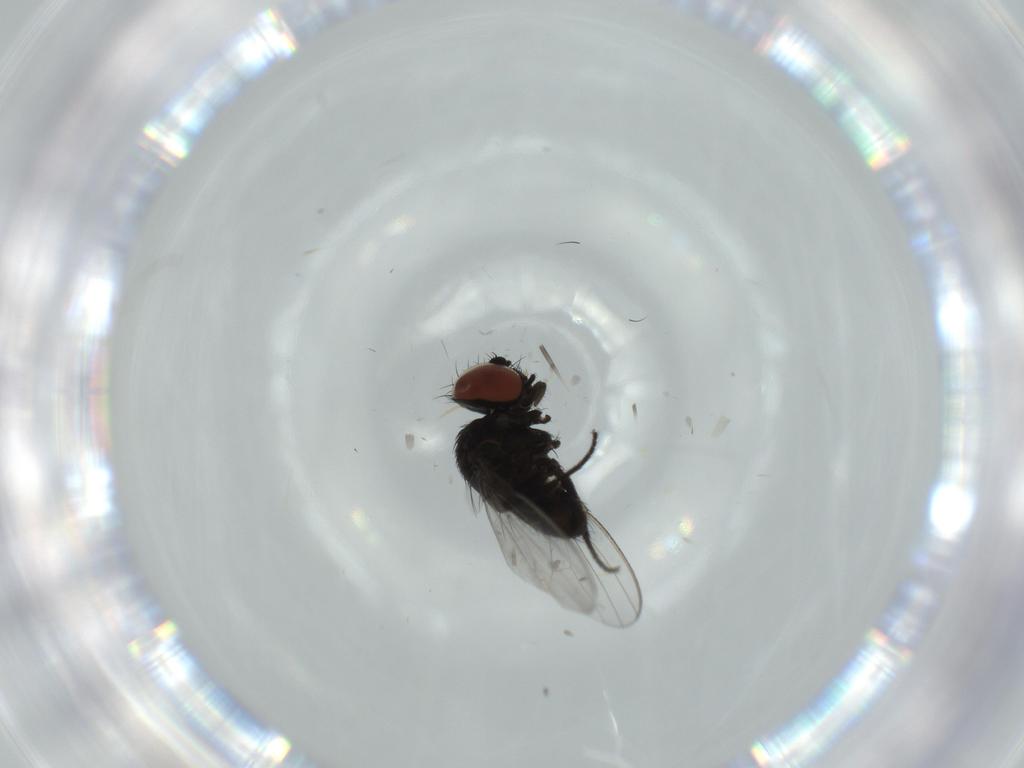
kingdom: Animalia
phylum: Arthropoda
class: Insecta
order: Diptera
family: Milichiidae
